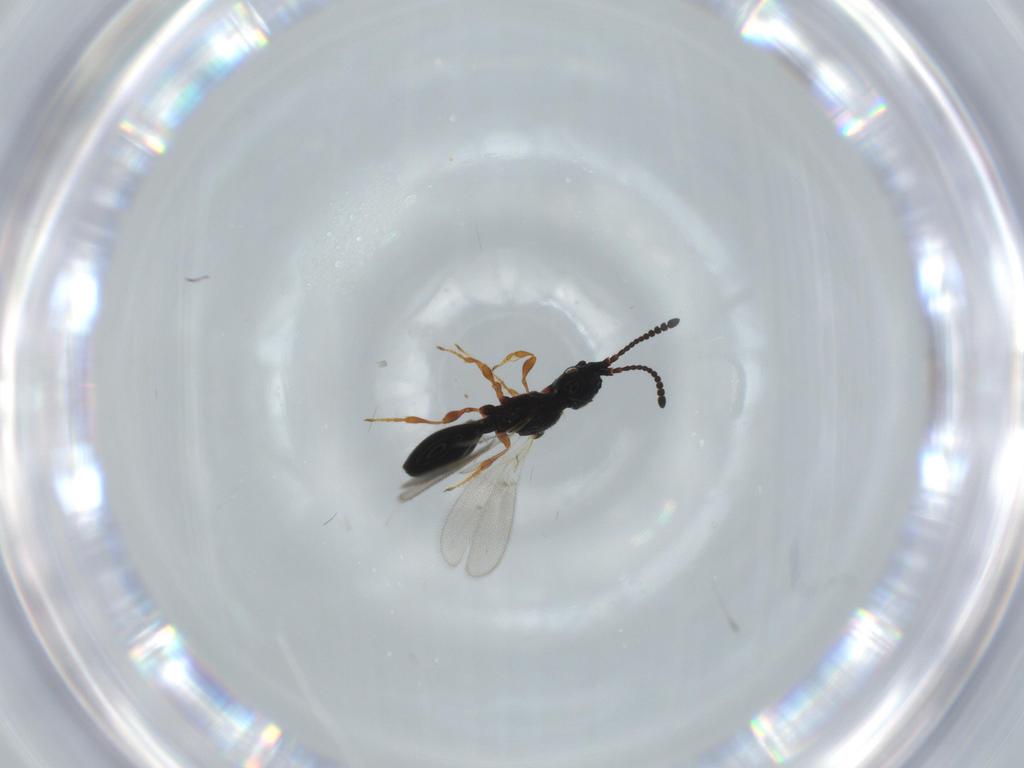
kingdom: Animalia
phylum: Arthropoda
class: Insecta
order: Hymenoptera
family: Diapriidae
